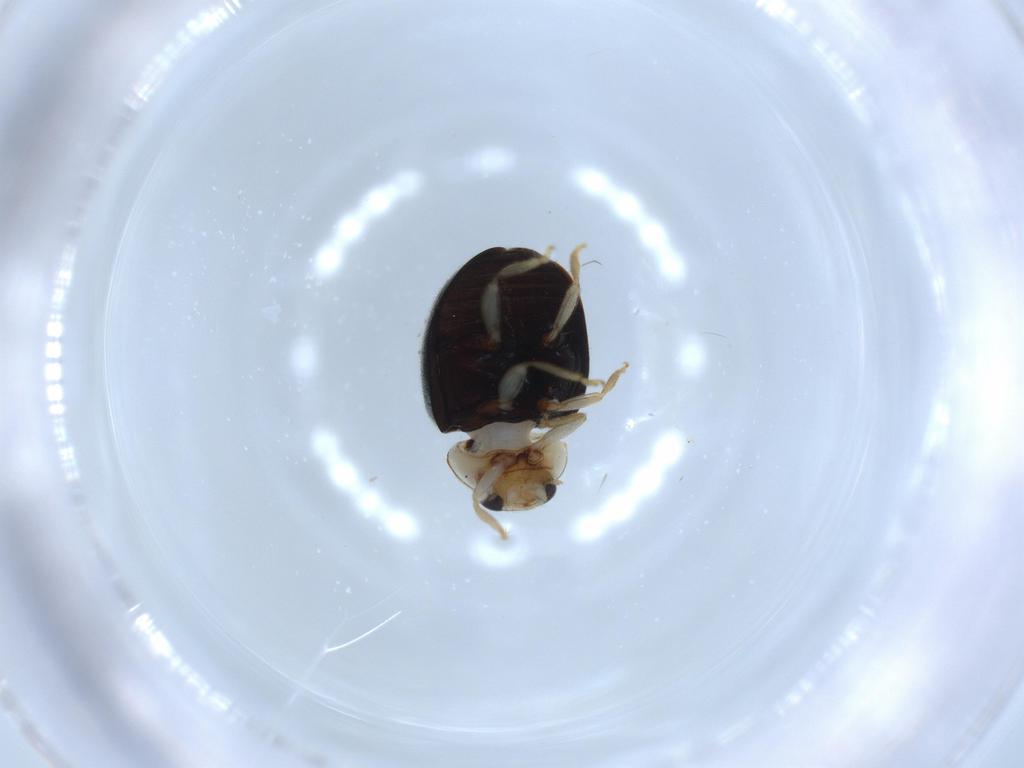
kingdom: Animalia
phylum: Arthropoda
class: Insecta
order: Coleoptera
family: Coccinellidae
